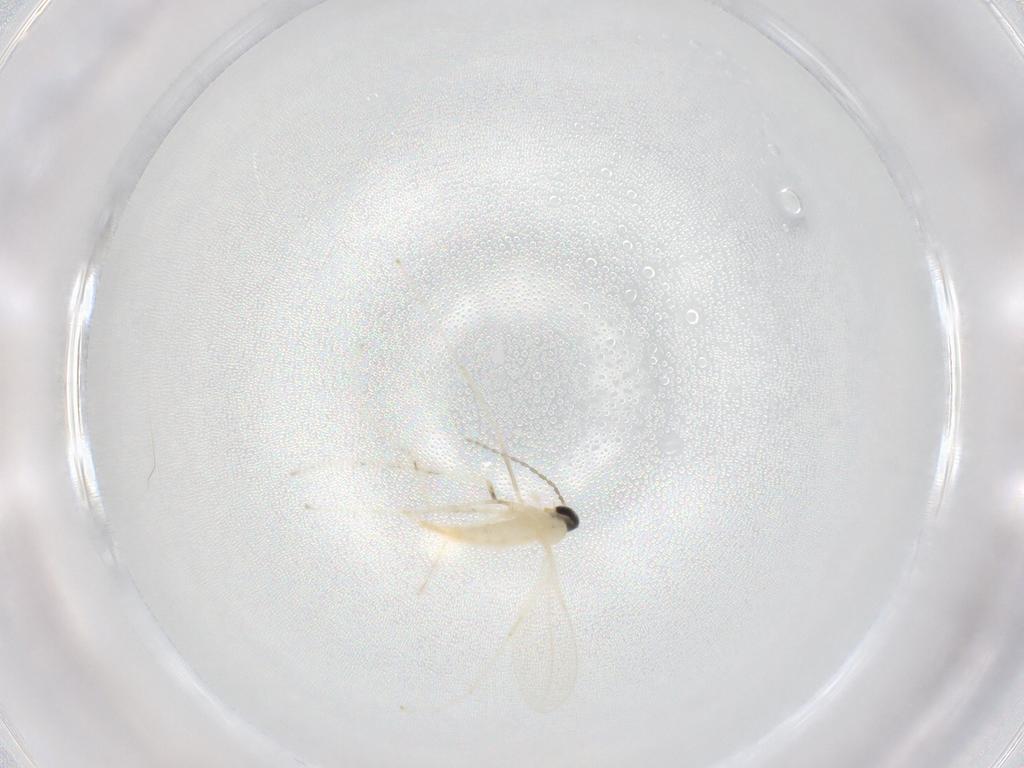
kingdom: Animalia
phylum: Arthropoda
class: Insecta
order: Diptera
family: Cecidomyiidae
